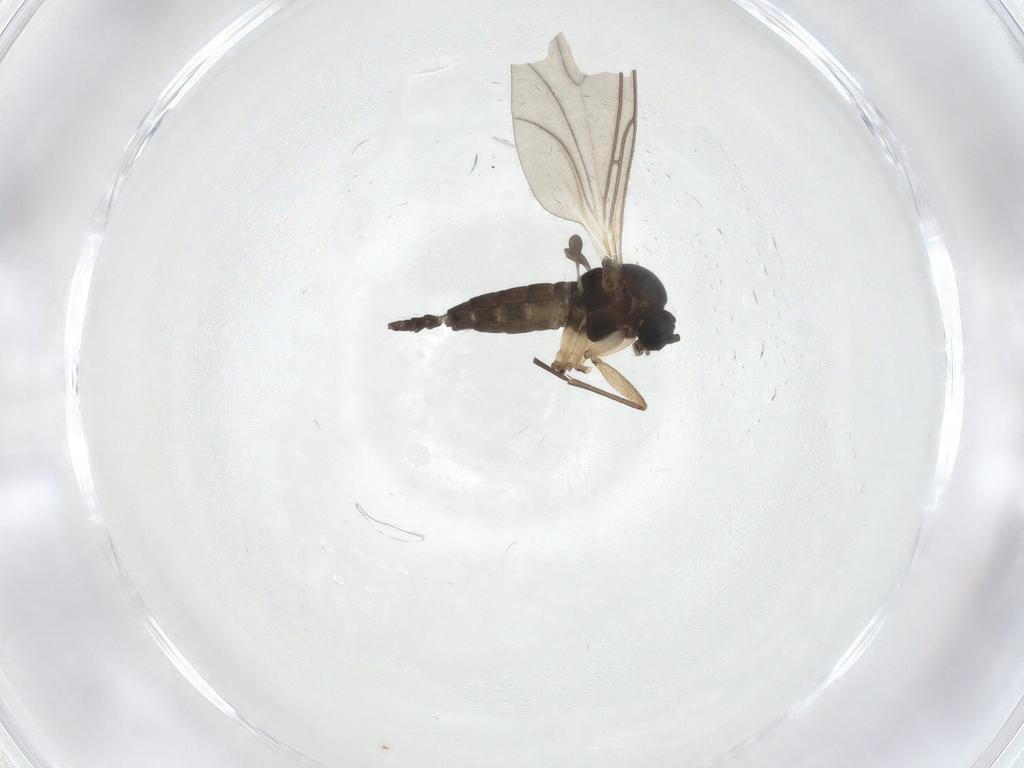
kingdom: Animalia
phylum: Arthropoda
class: Insecta
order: Diptera
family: Sciaridae
